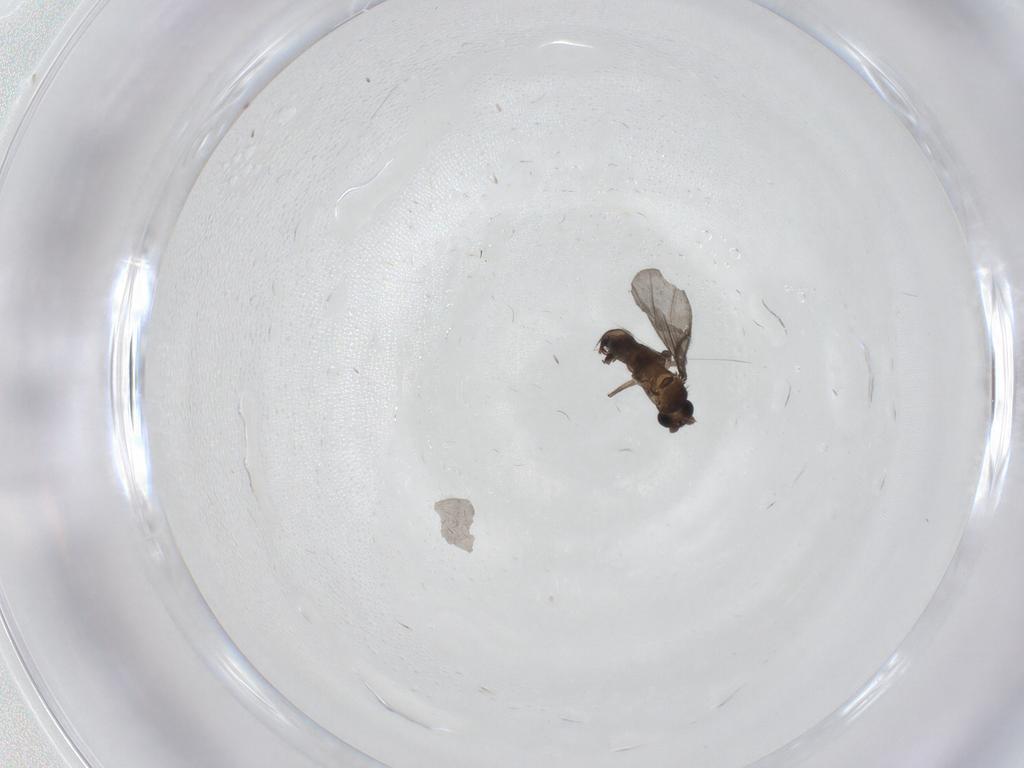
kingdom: Animalia
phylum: Arthropoda
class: Insecta
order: Diptera
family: Phoridae
